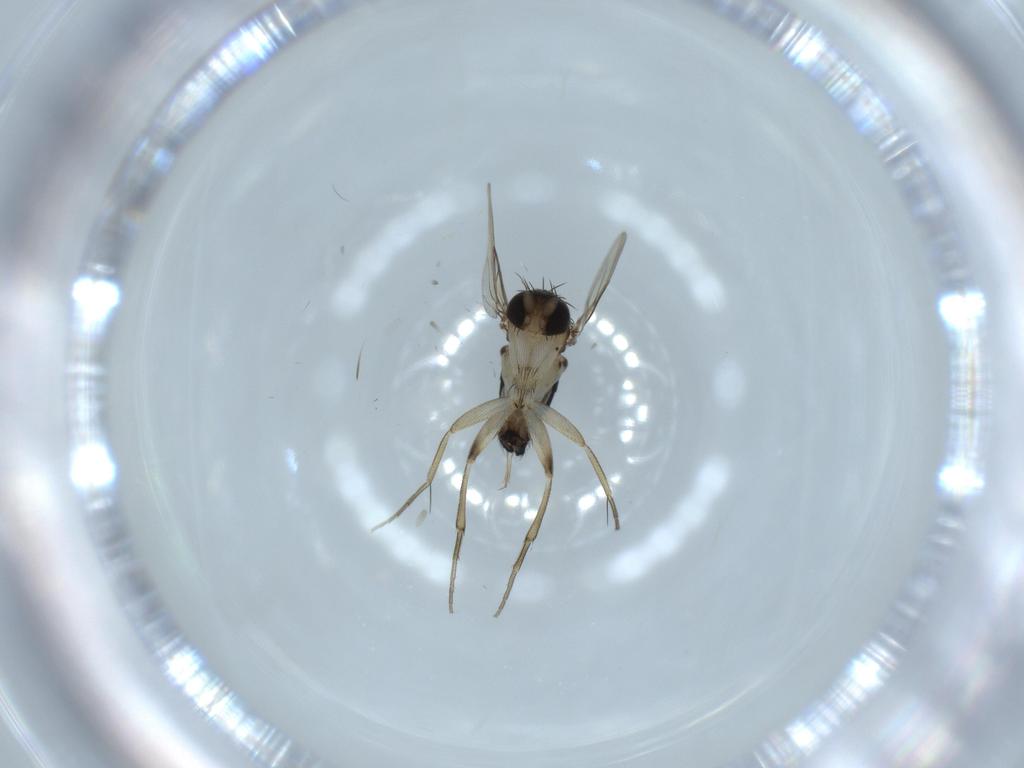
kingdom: Animalia
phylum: Arthropoda
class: Insecta
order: Diptera
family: Phoridae
